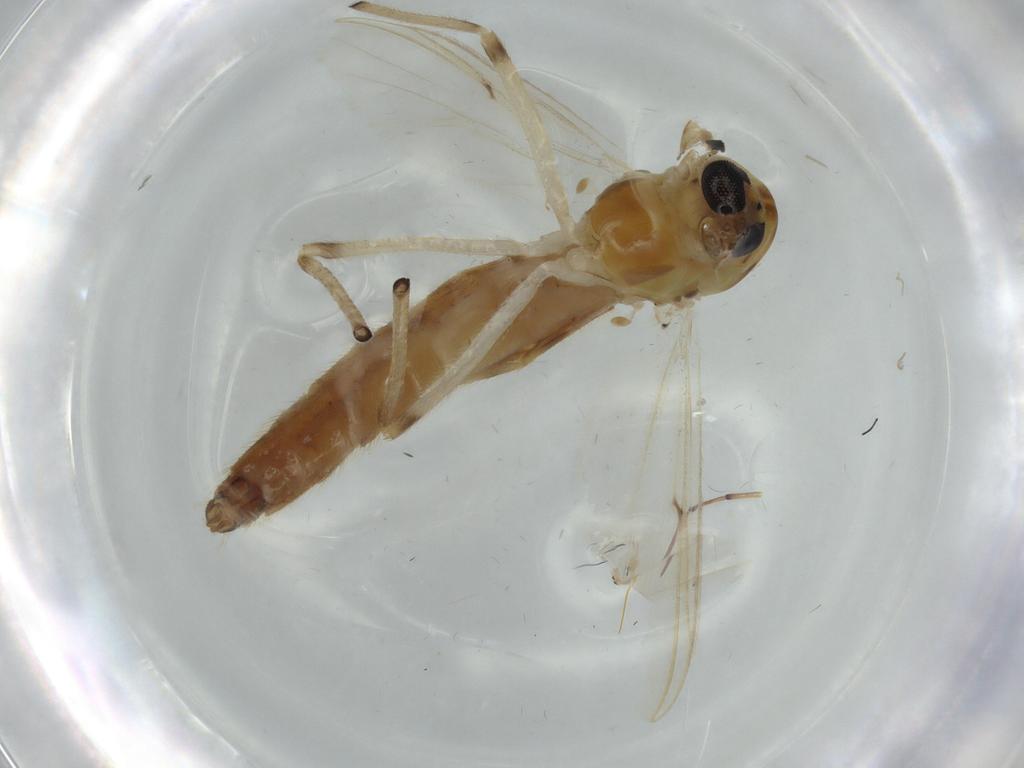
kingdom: Animalia
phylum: Arthropoda
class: Insecta
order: Diptera
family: Chironomidae
